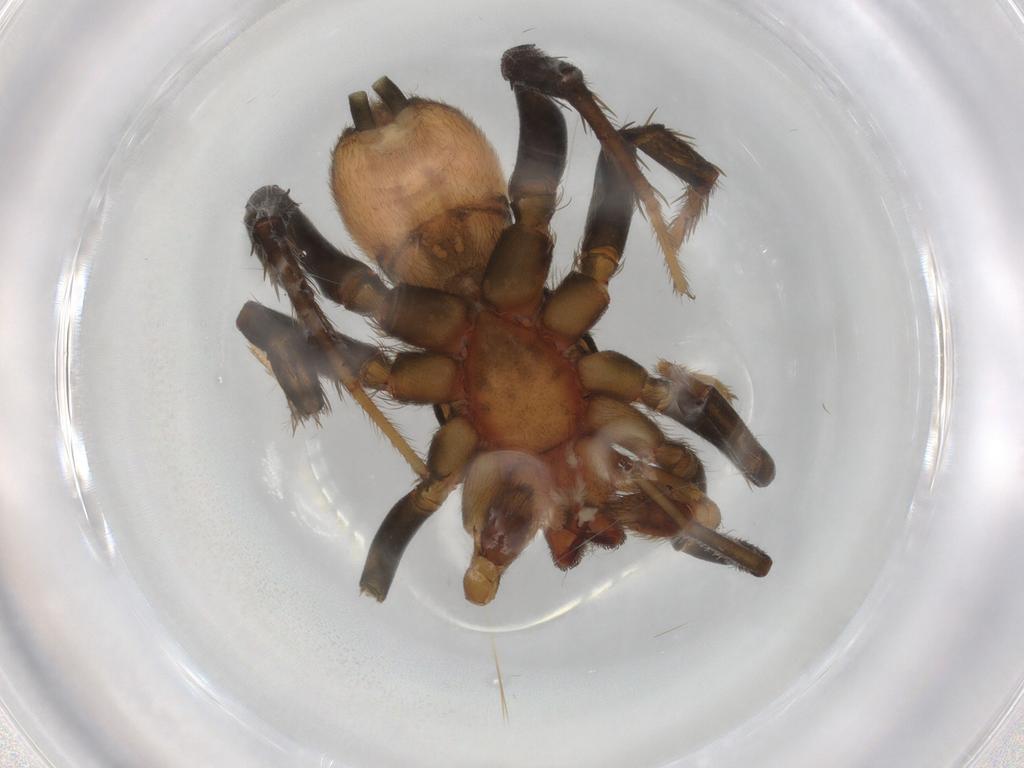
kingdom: Animalia
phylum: Arthropoda
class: Arachnida
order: Araneae
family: Gnaphosidae
